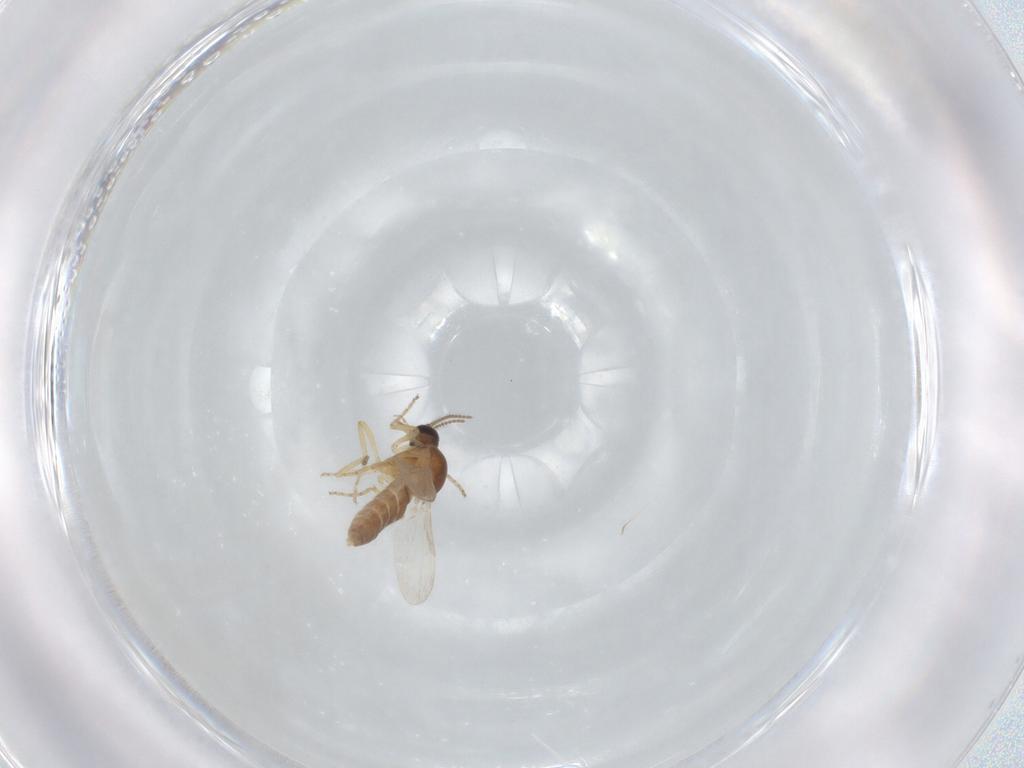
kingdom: Animalia
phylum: Arthropoda
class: Insecta
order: Diptera
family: Ceratopogonidae
